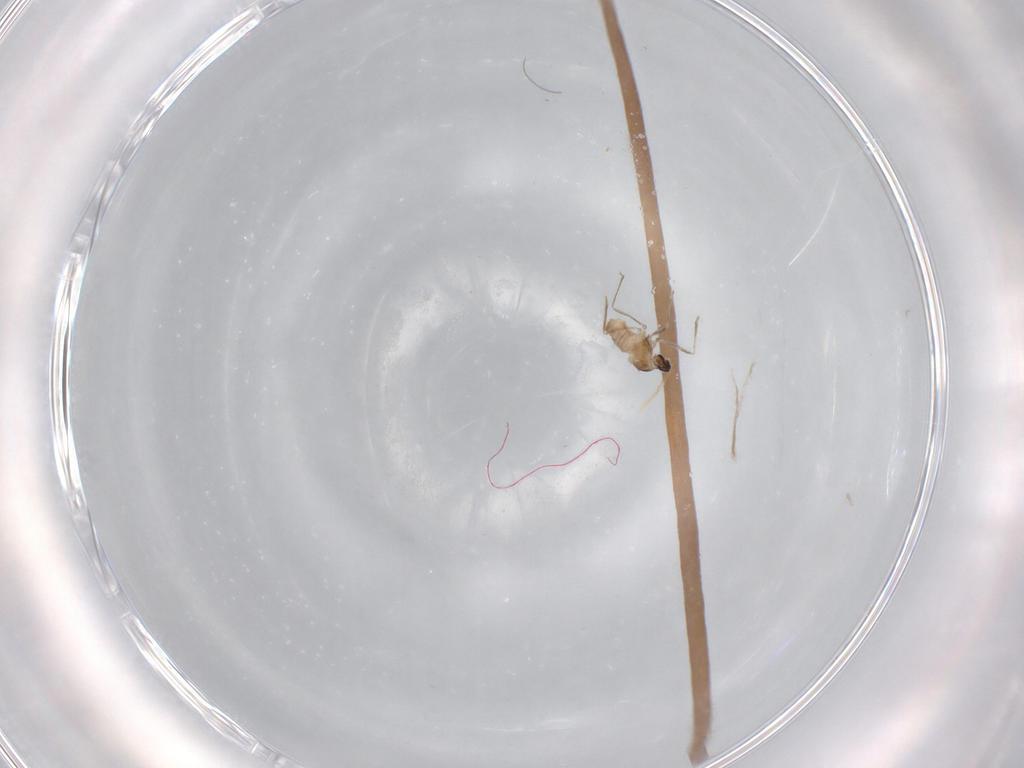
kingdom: Animalia
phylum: Arthropoda
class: Insecta
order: Diptera
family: Cecidomyiidae
